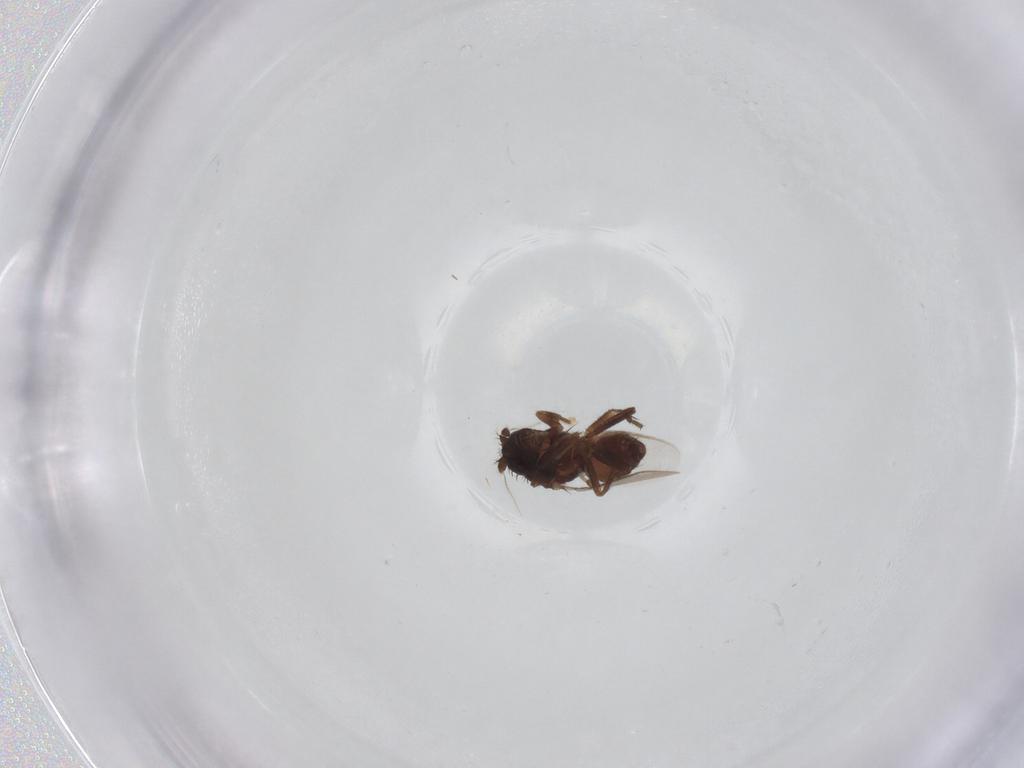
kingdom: Animalia
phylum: Arthropoda
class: Insecta
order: Diptera
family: Sphaeroceridae
